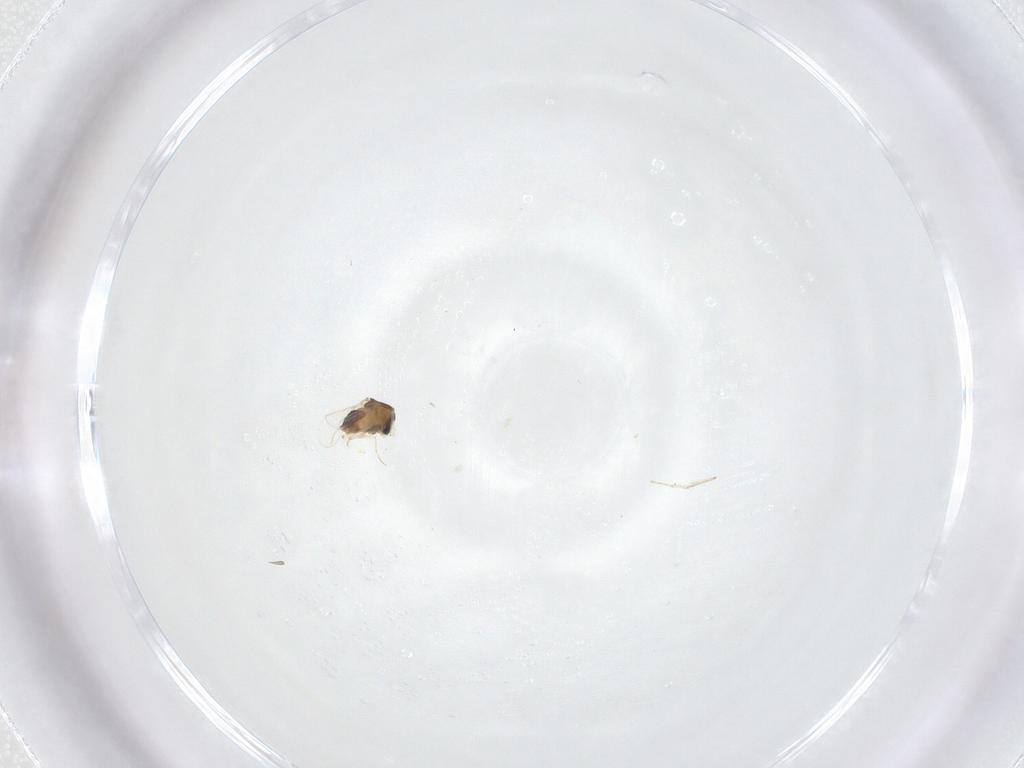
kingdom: Animalia
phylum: Arthropoda
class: Insecta
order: Diptera
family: Chironomidae
